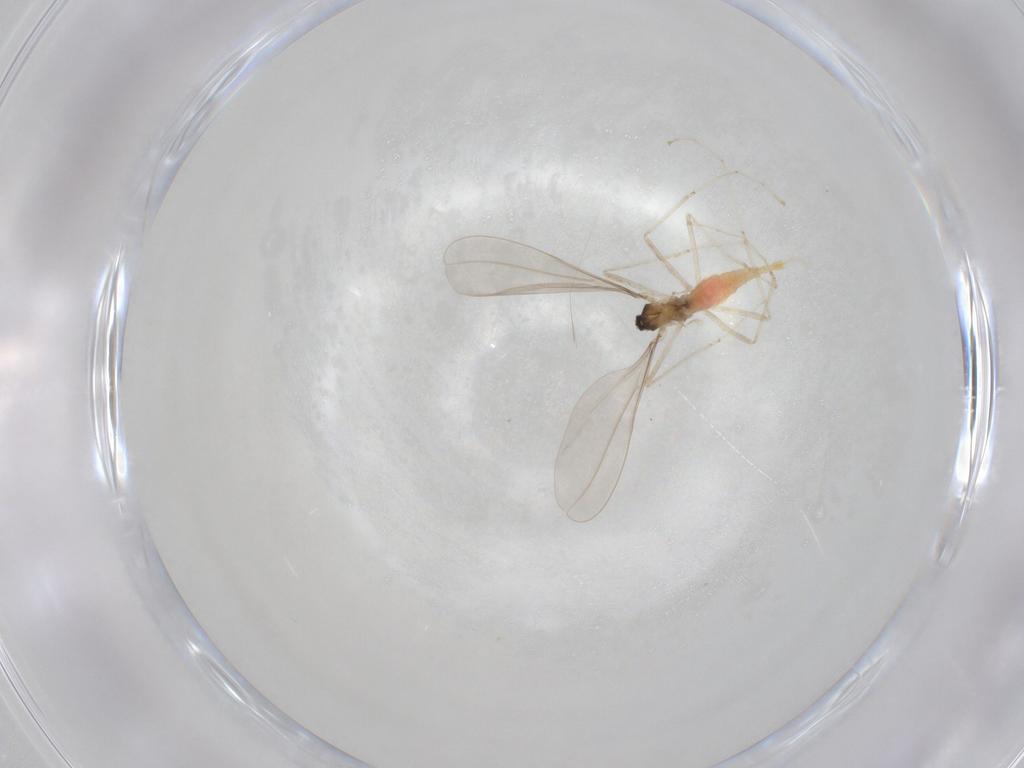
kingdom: Animalia
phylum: Arthropoda
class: Insecta
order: Diptera
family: Cecidomyiidae
